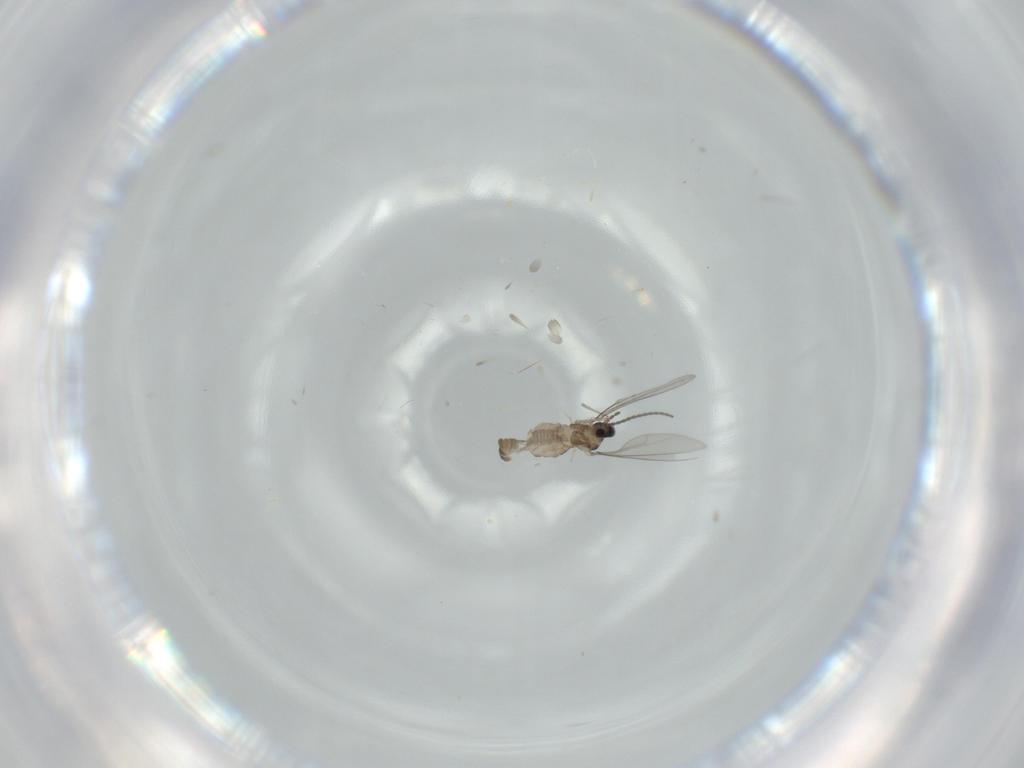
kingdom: Animalia
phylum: Arthropoda
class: Insecta
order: Diptera
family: Cecidomyiidae
